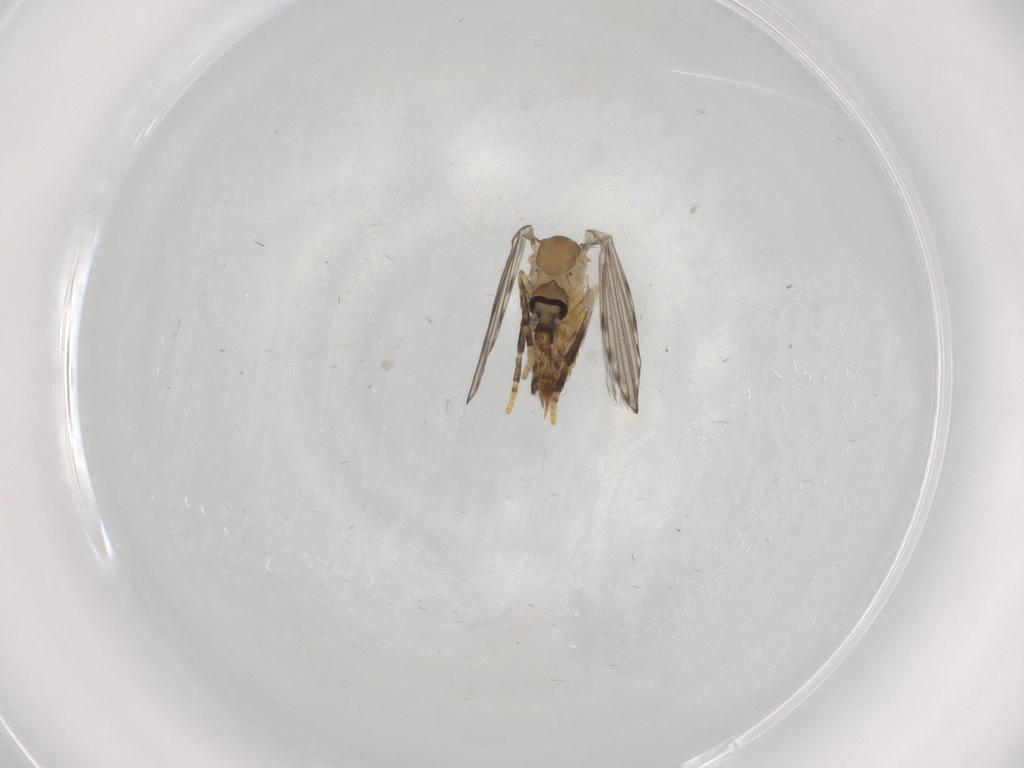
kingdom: Animalia
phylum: Arthropoda
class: Insecta
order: Diptera
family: Psychodidae
